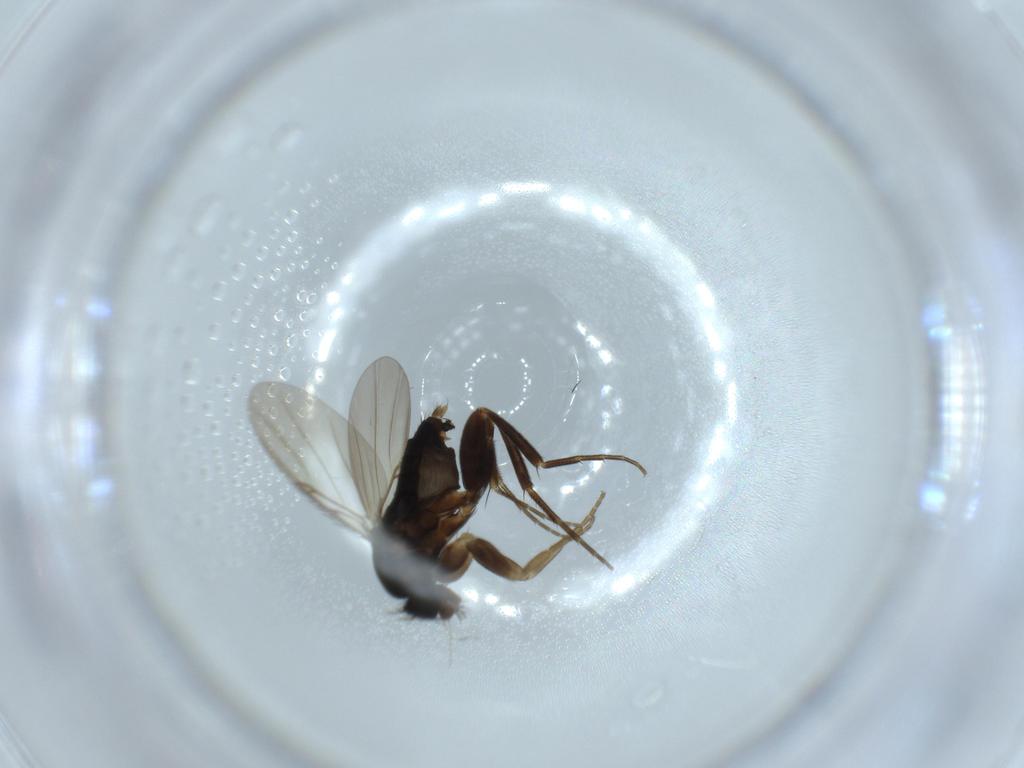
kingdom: Animalia
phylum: Arthropoda
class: Insecta
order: Diptera
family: Phoridae
